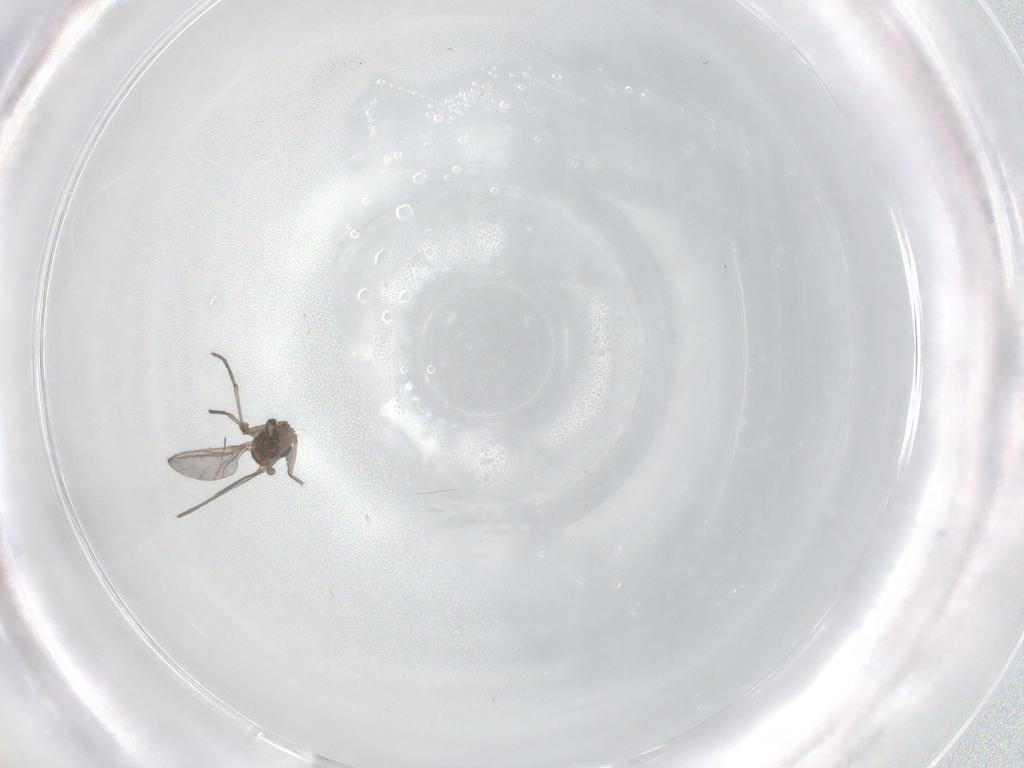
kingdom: Animalia
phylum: Arthropoda
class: Insecta
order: Diptera
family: Sciaridae
